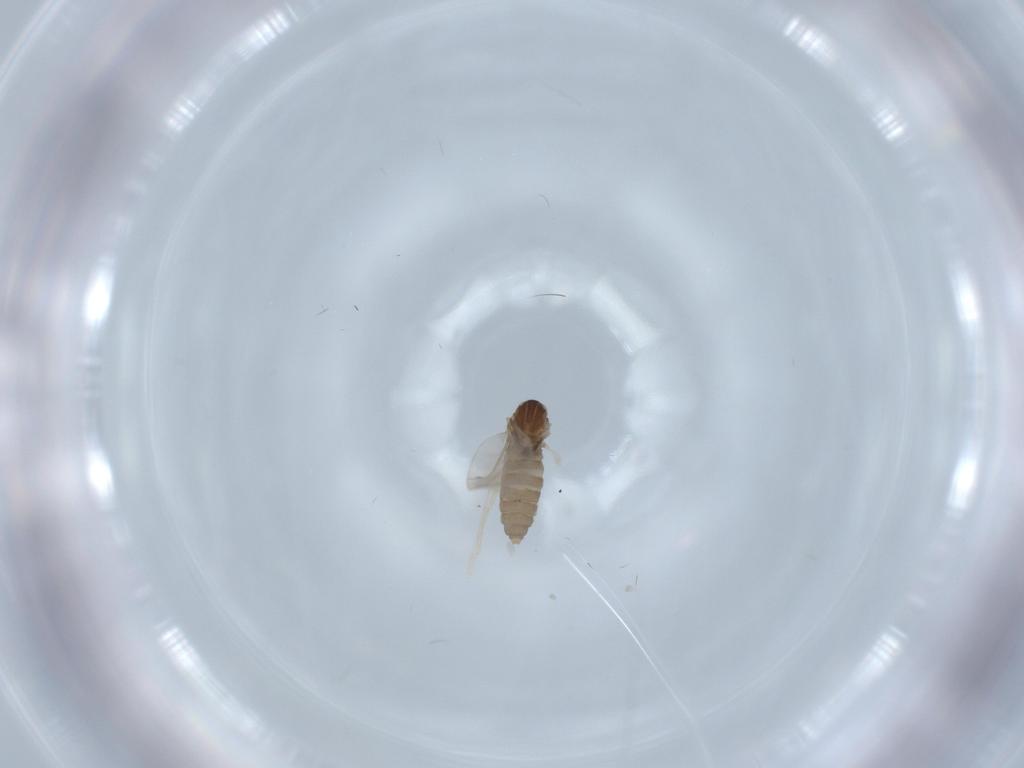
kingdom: Animalia
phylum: Arthropoda
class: Insecta
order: Diptera
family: Cecidomyiidae
